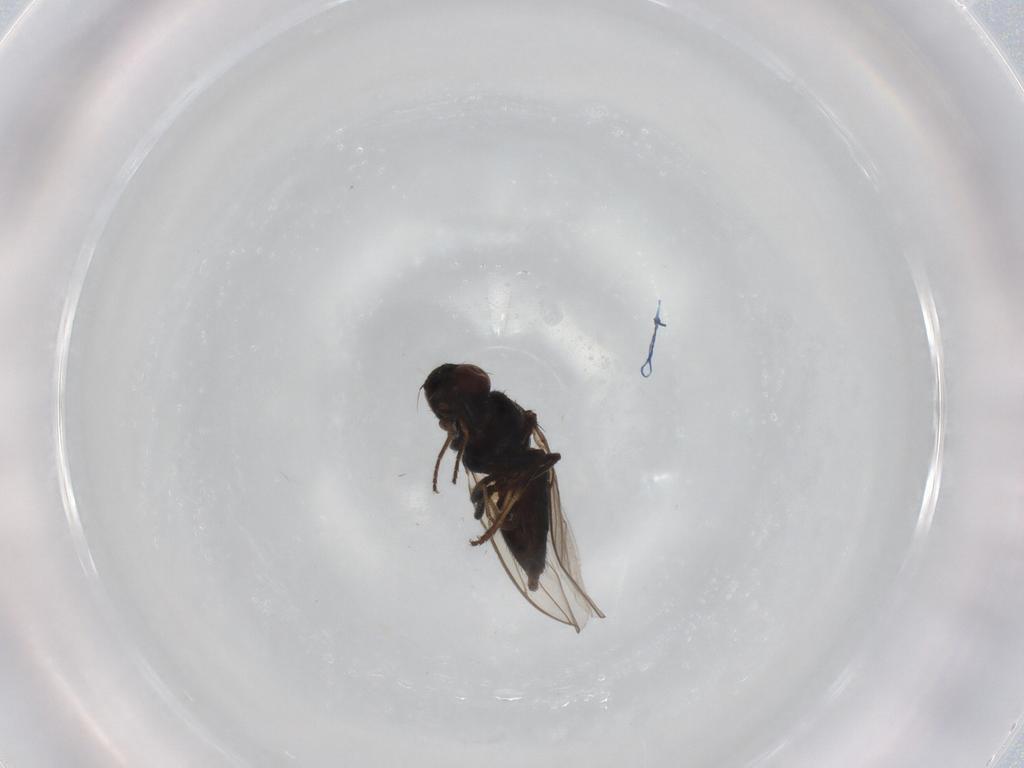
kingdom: Animalia
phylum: Arthropoda
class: Insecta
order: Diptera
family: Chloropidae
